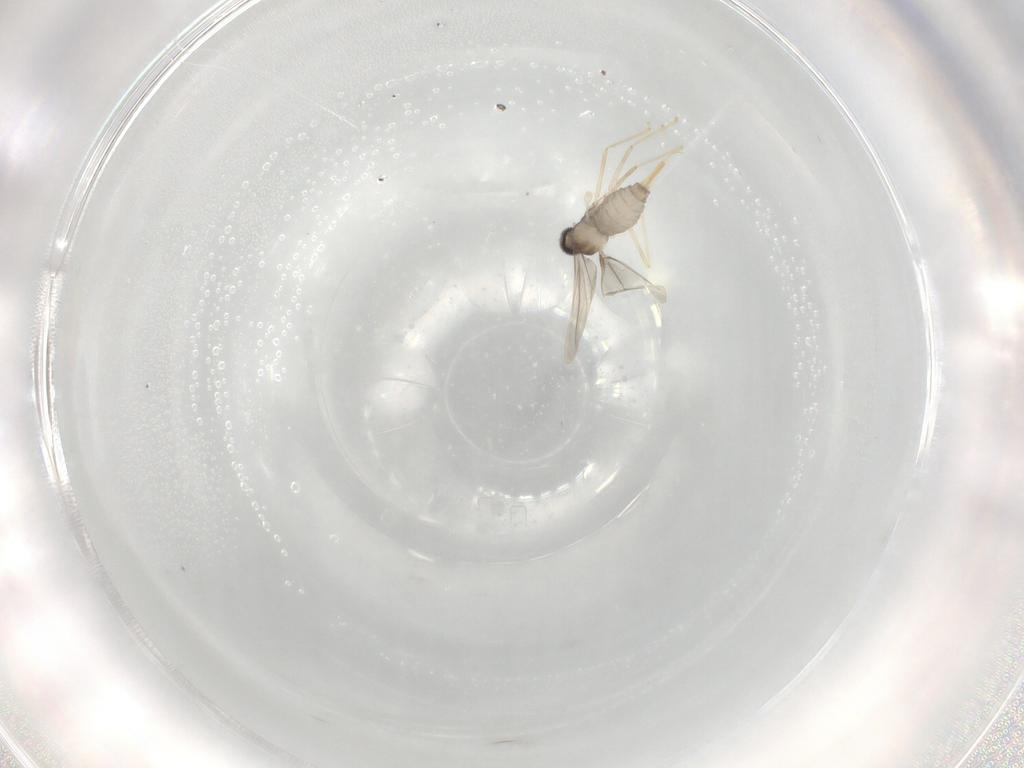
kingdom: Animalia
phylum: Arthropoda
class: Insecta
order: Diptera
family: Cecidomyiidae
